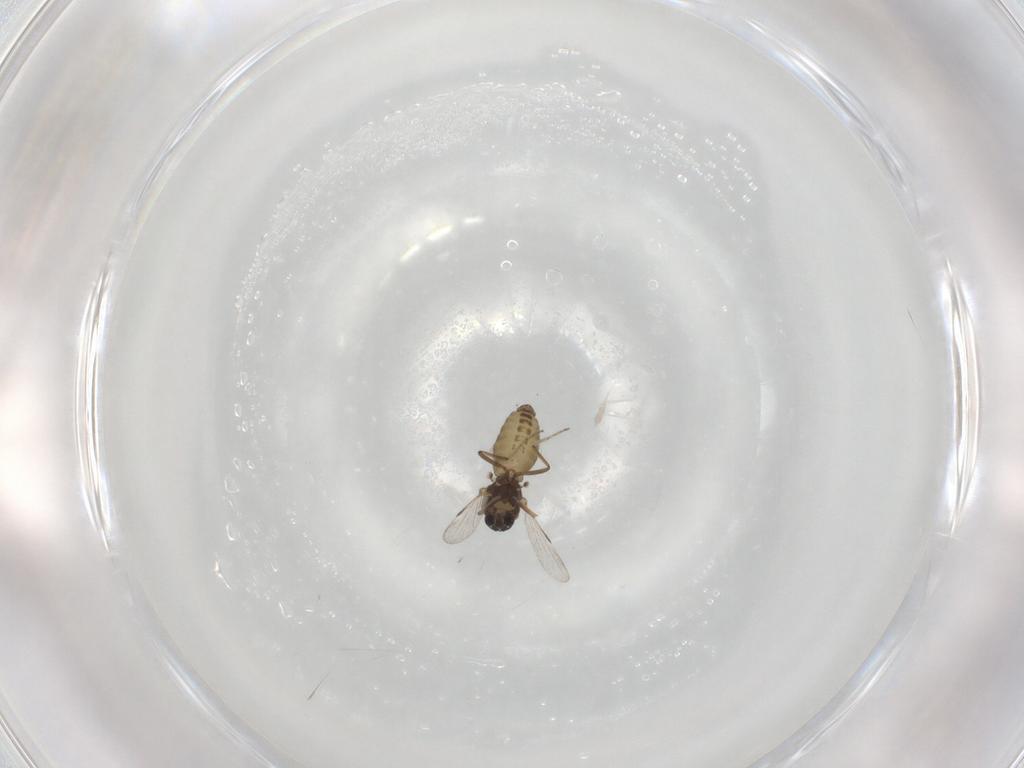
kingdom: Animalia
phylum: Arthropoda
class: Insecta
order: Diptera
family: Ceratopogonidae
